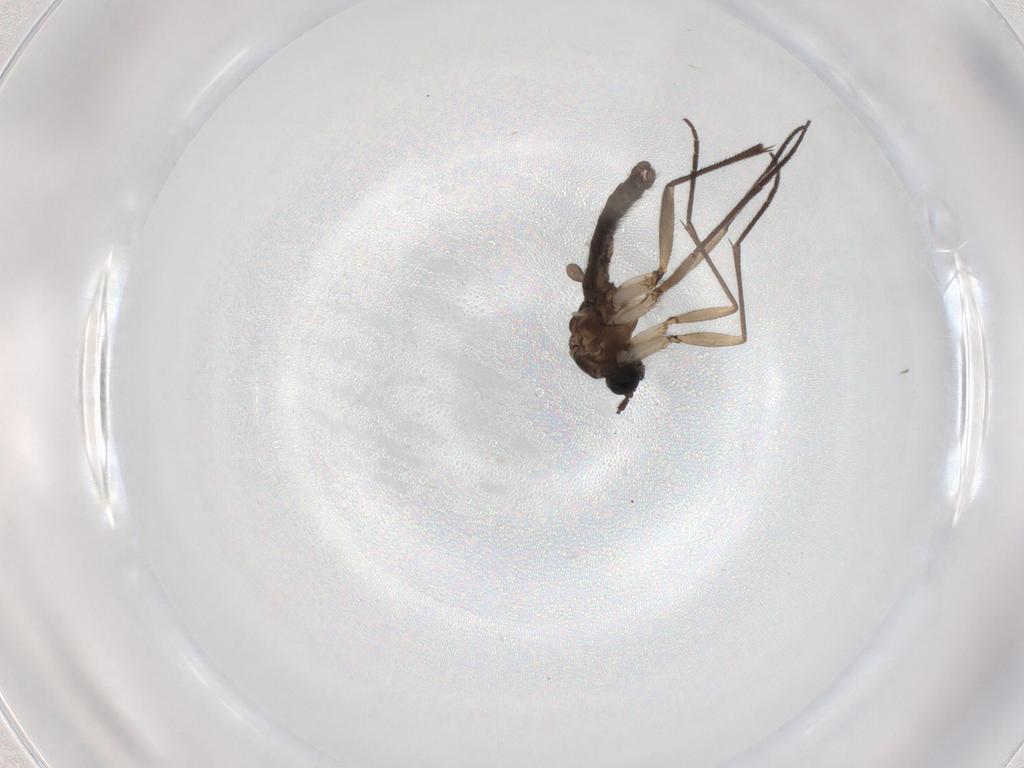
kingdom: Animalia
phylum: Arthropoda
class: Insecta
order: Diptera
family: Sciaridae
